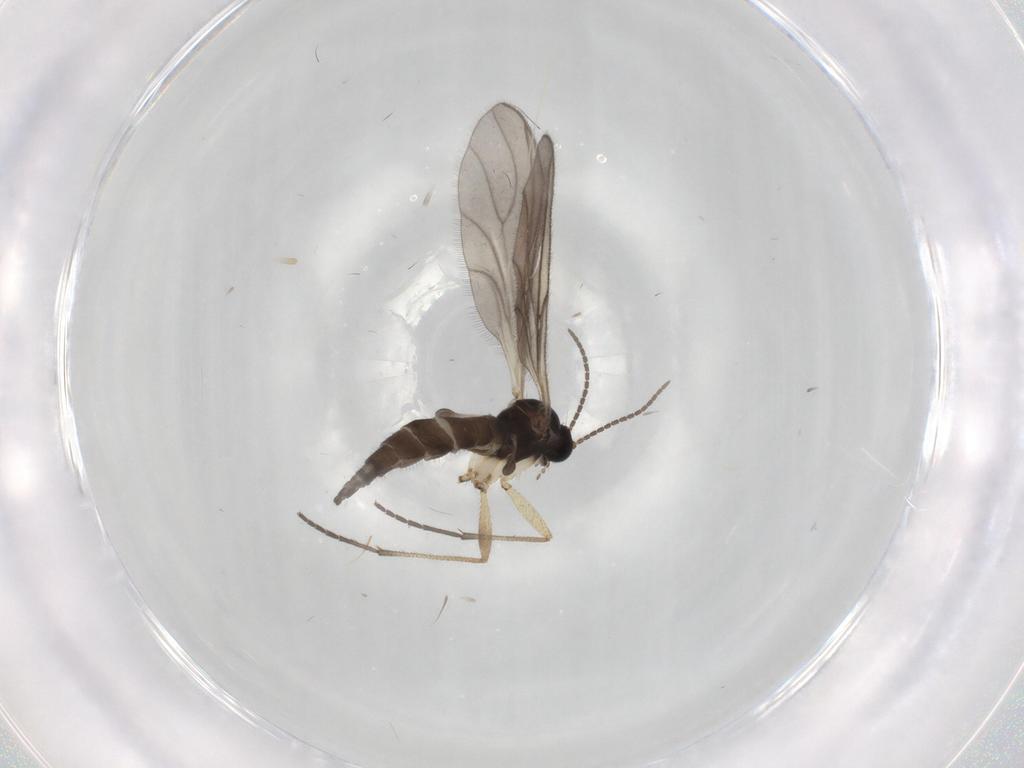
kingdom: Animalia
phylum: Arthropoda
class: Insecta
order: Diptera
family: Sciaridae
